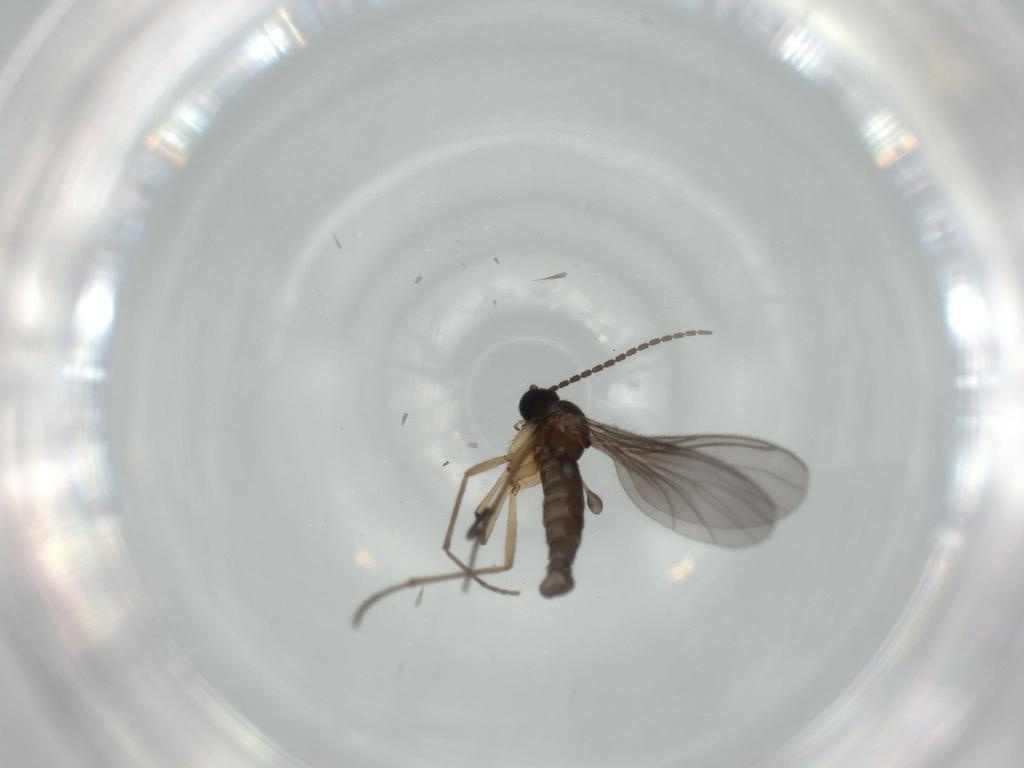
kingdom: Animalia
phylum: Arthropoda
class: Insecta
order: Diptera
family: Sciaridae
